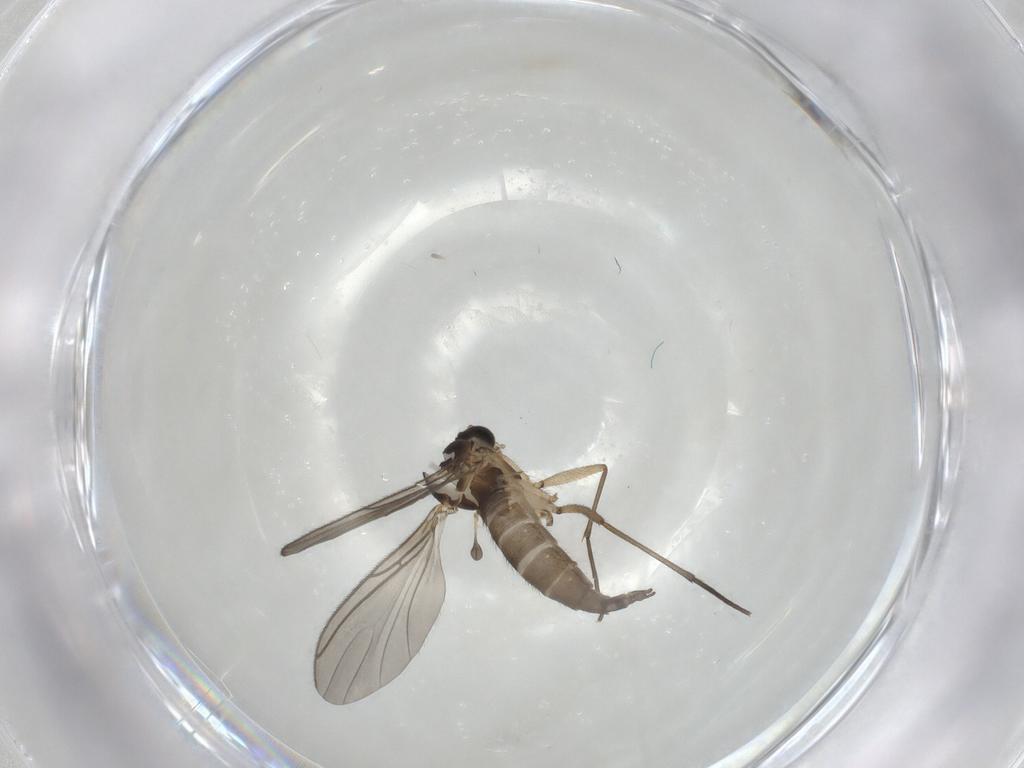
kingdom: Animalia
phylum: Arthropoda
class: Insecta
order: Diptera
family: Sciaridae
